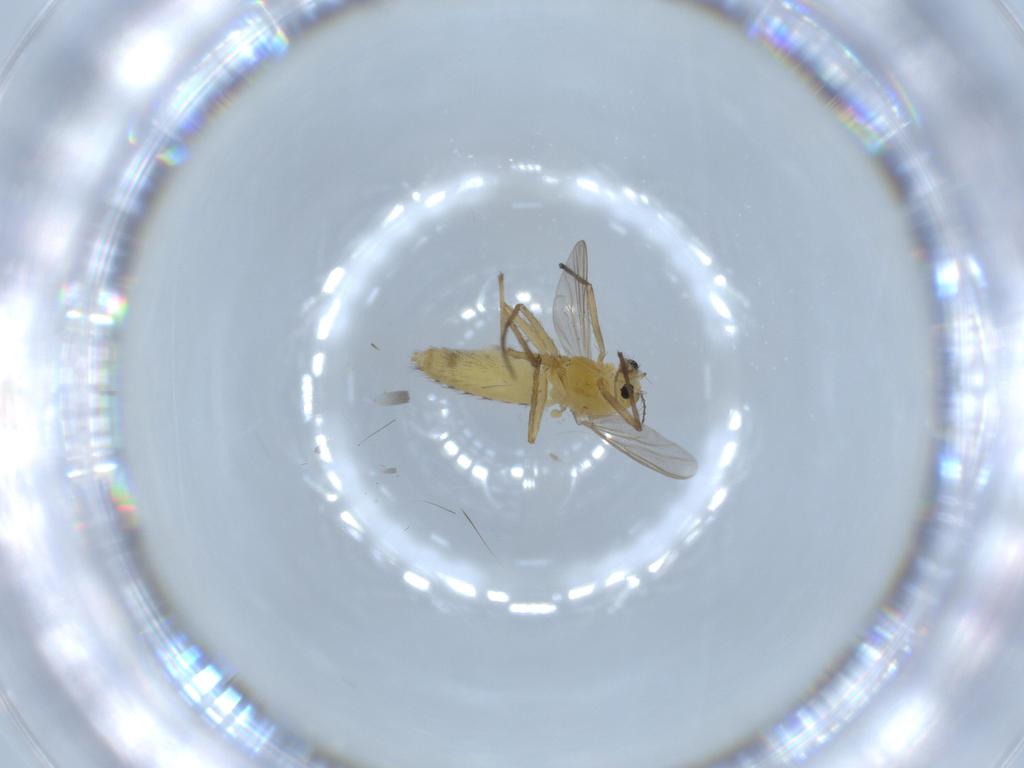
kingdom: Animalia
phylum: Arthropoda
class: Insecta
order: Diptera
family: Chironomidae
